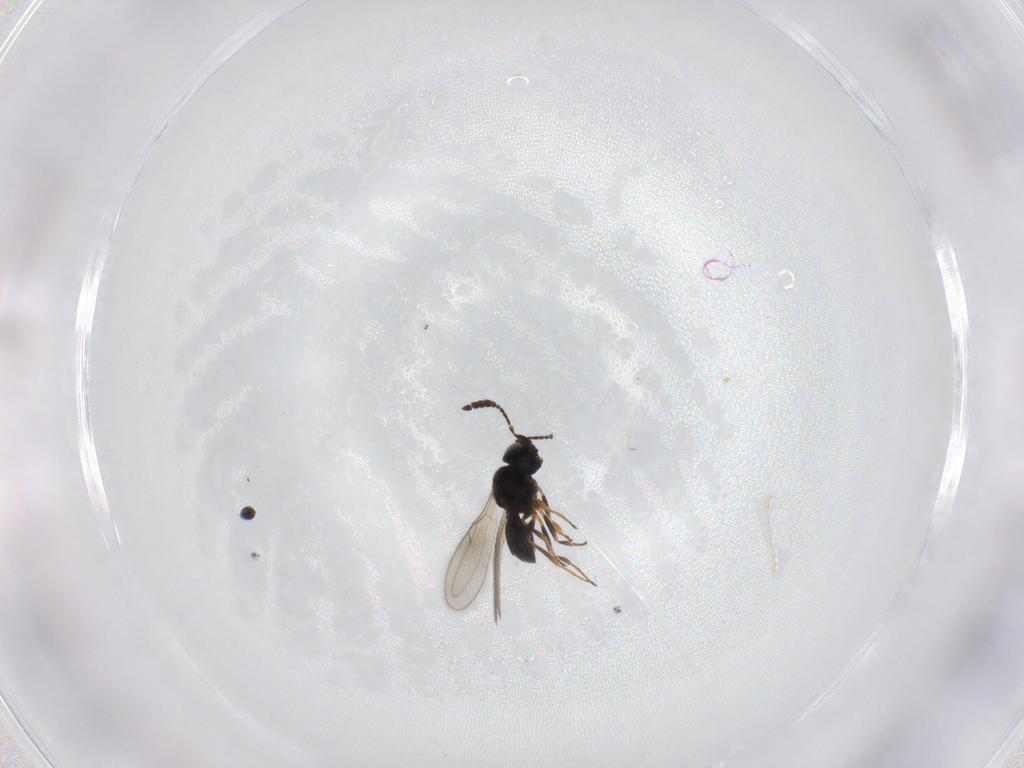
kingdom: Animalia
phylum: Arthropoda
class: Insecta
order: Hymenoptera
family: Scelionidae
